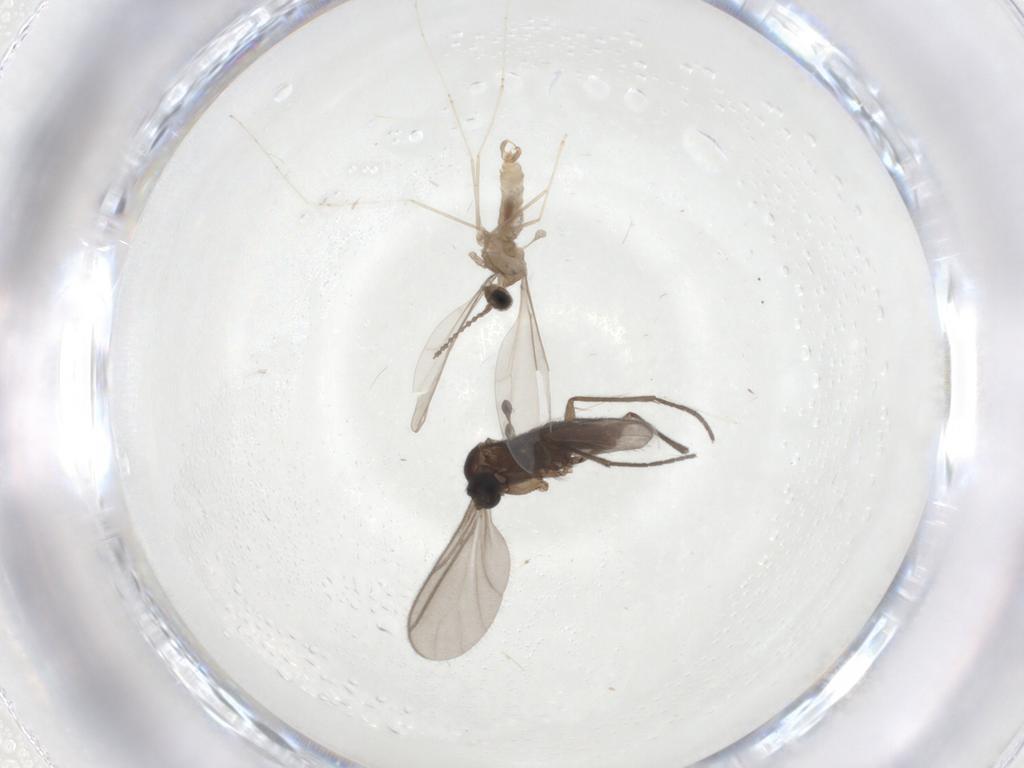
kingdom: Animalia
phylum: Arthropoda
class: Insecta
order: Diptera
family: Sciaridae
